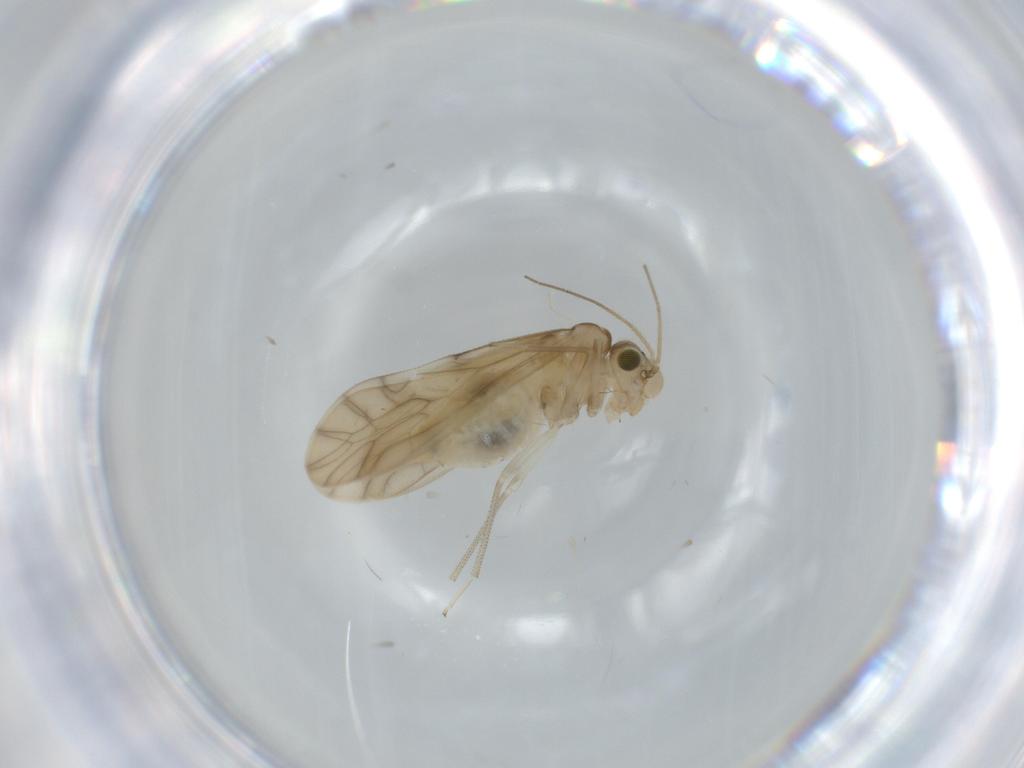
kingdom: Animalia
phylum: Arthropoda
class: Insecta
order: Psocodea
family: Caeciliusidae
